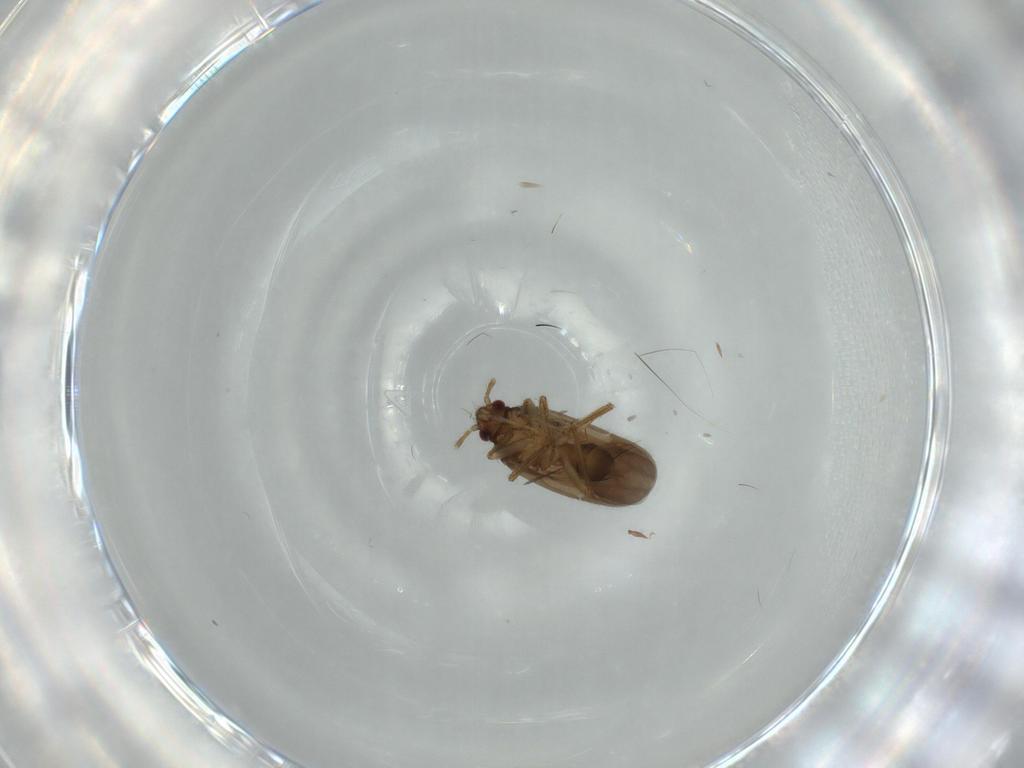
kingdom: Animalia
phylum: Arthropoda
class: Insecta
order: Hemiptera
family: Ceratocombidae
